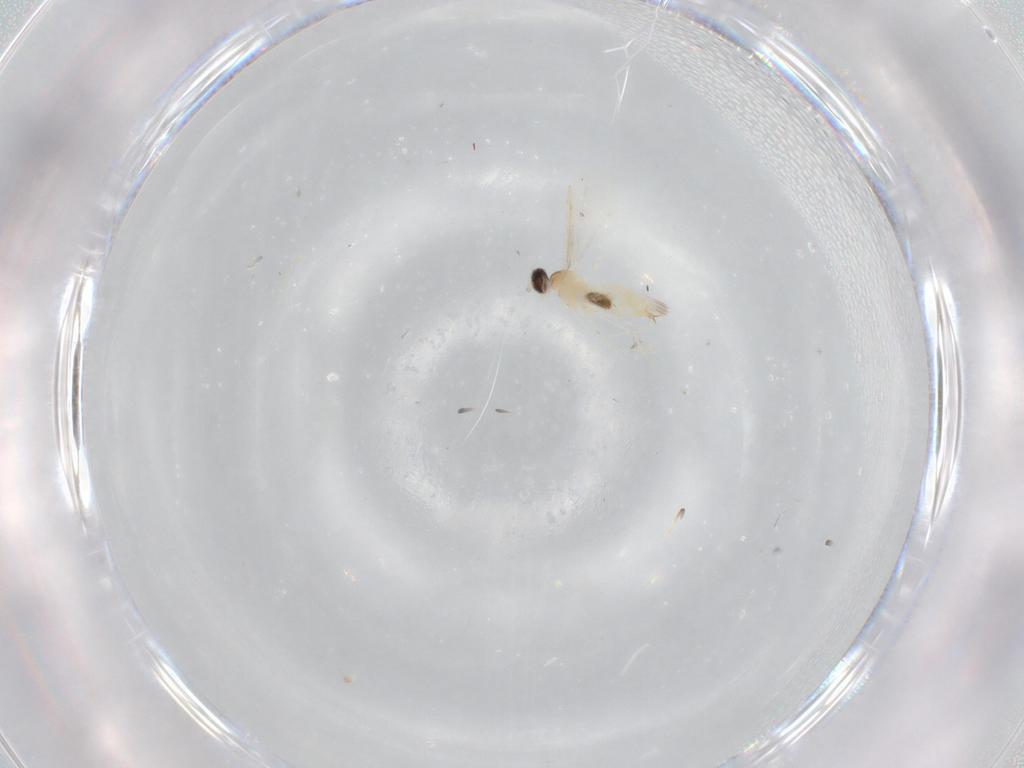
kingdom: Animalia
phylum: Arthropoda
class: Insecta
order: Diptera
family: Cecidomyiidae
